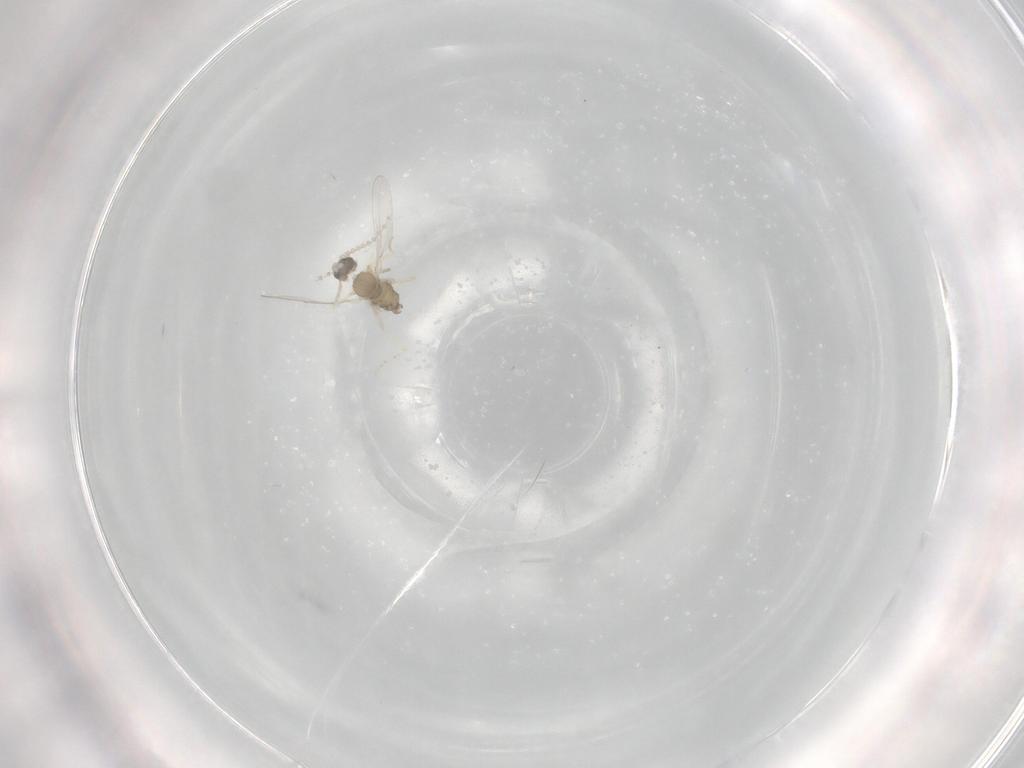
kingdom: Animalia
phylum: Arthropoda
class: Insecta
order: Diptera
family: Cecidomyiidae
